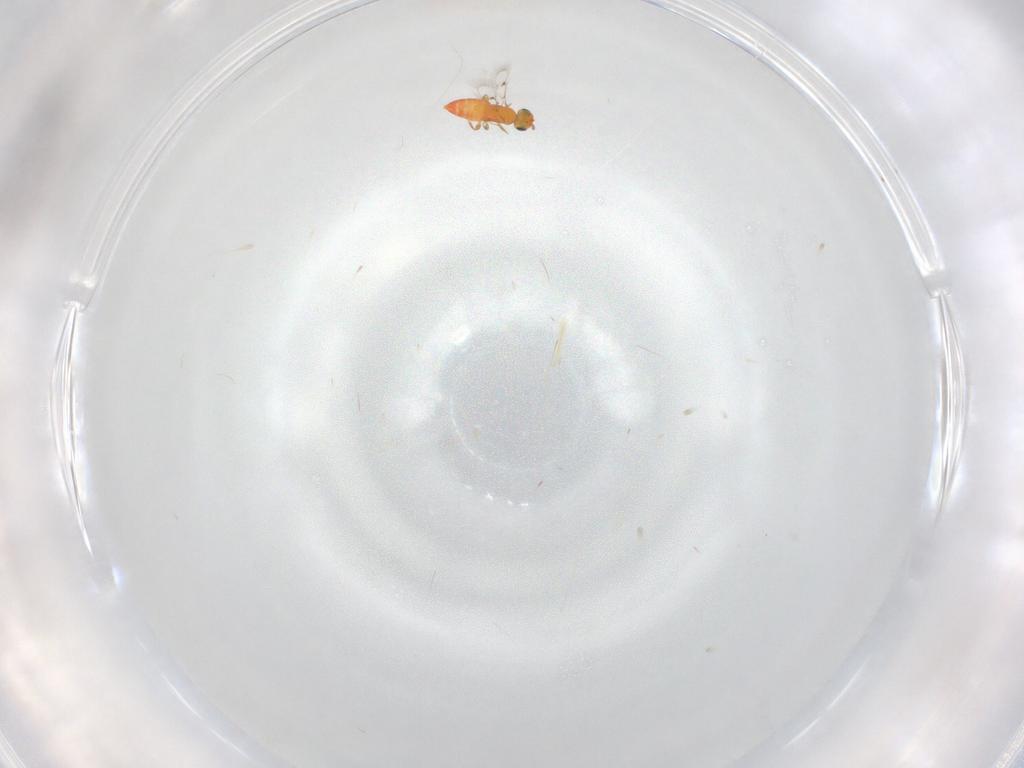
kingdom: Animalia
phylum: Arthropoda
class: Insecta
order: Hymenoptera
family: Trichogrammatidae
